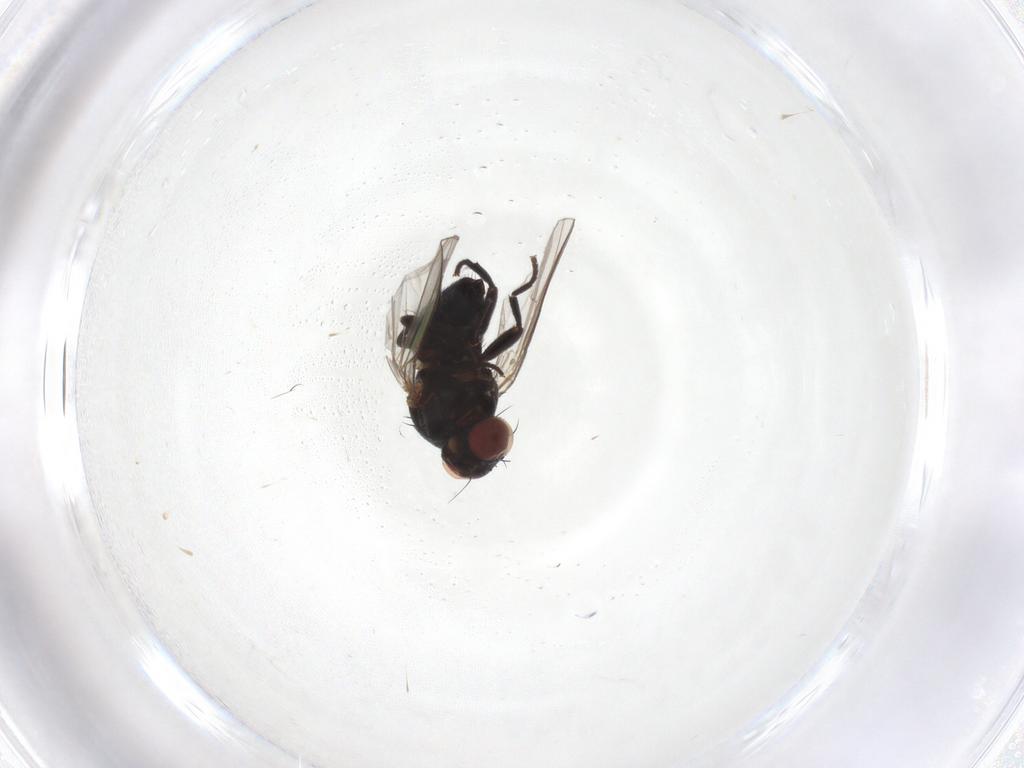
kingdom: Animalia
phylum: Arthropoda
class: Insecta
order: Diptera
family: Agromyzidae
